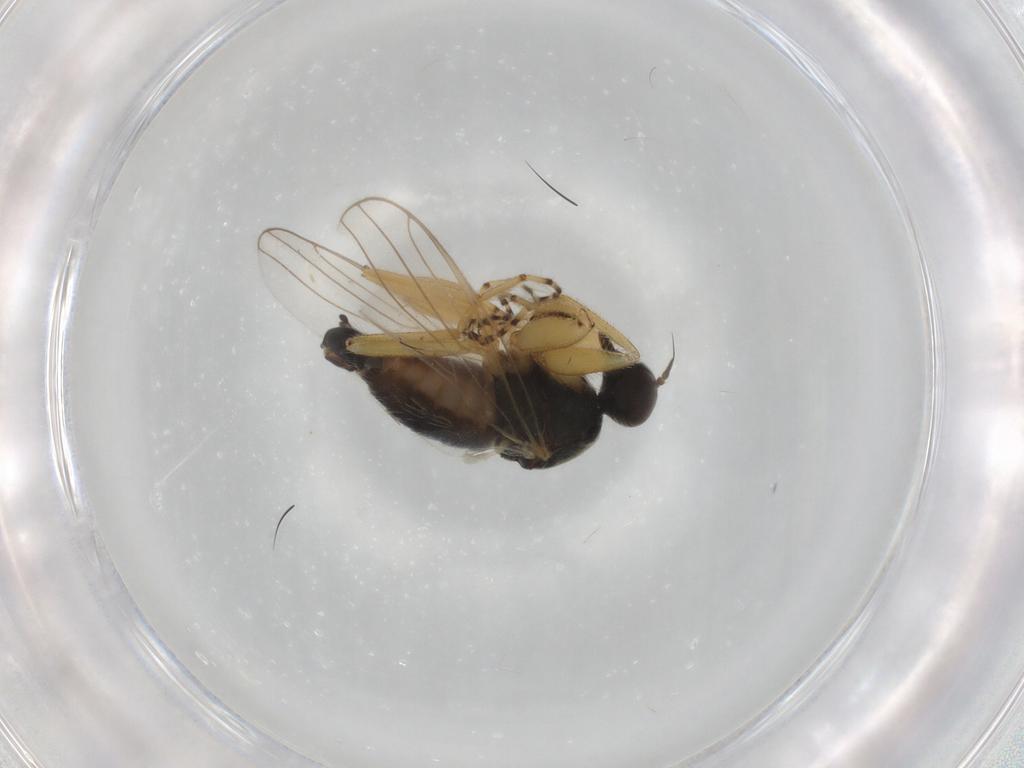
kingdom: Animalia
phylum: Arthropoda
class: Insecta
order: Diptera
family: Hybotidae
